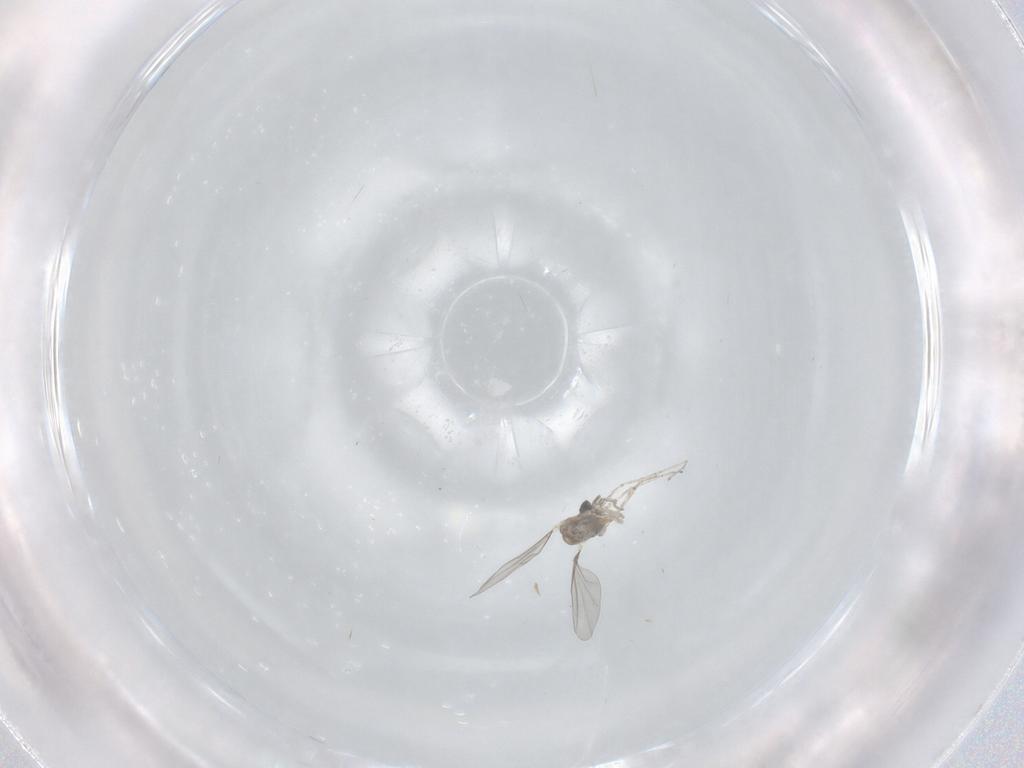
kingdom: Animalia
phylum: Arthropoda
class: Insecta
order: Diptera
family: Cecidomyiidae
